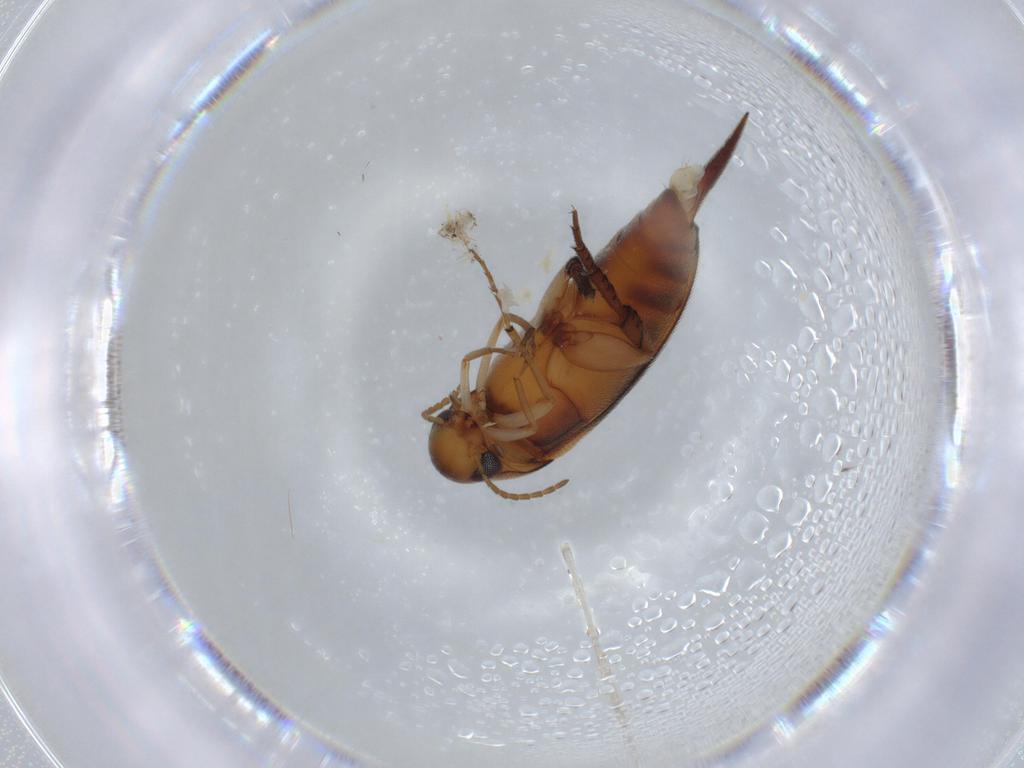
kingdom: Animalia
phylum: Arthropoda
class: Insecta
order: Coleoptera
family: Mordellidae
